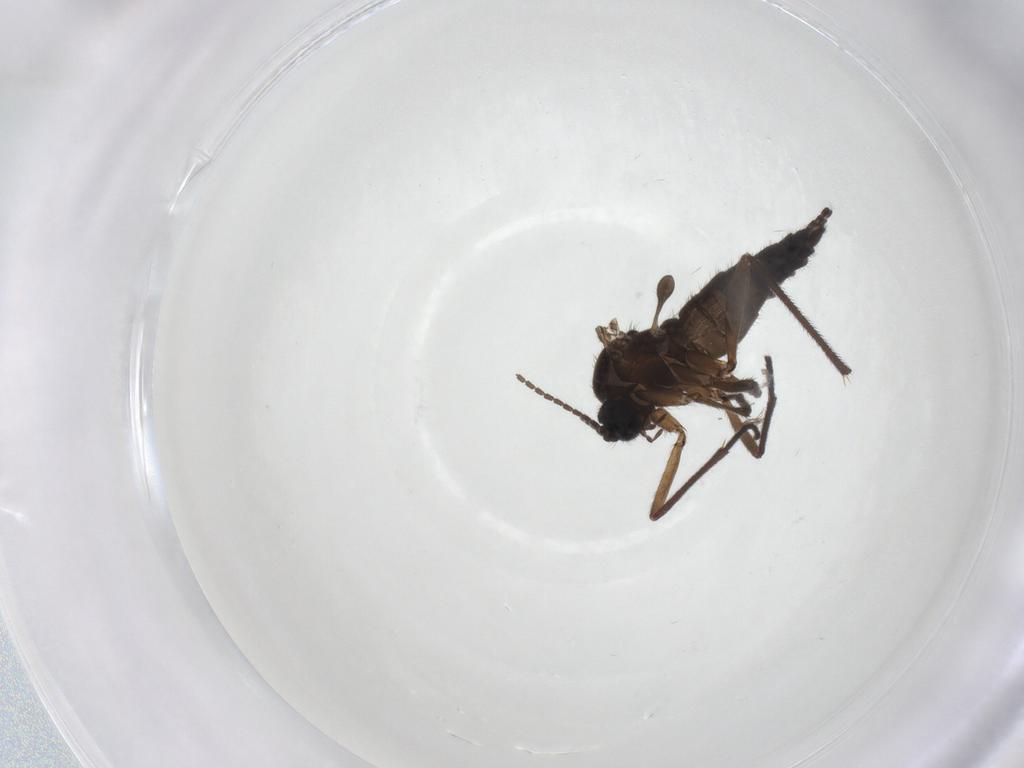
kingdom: Animalia
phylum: Arthropoda
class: Insecta
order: Diptera
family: Sciaridae
